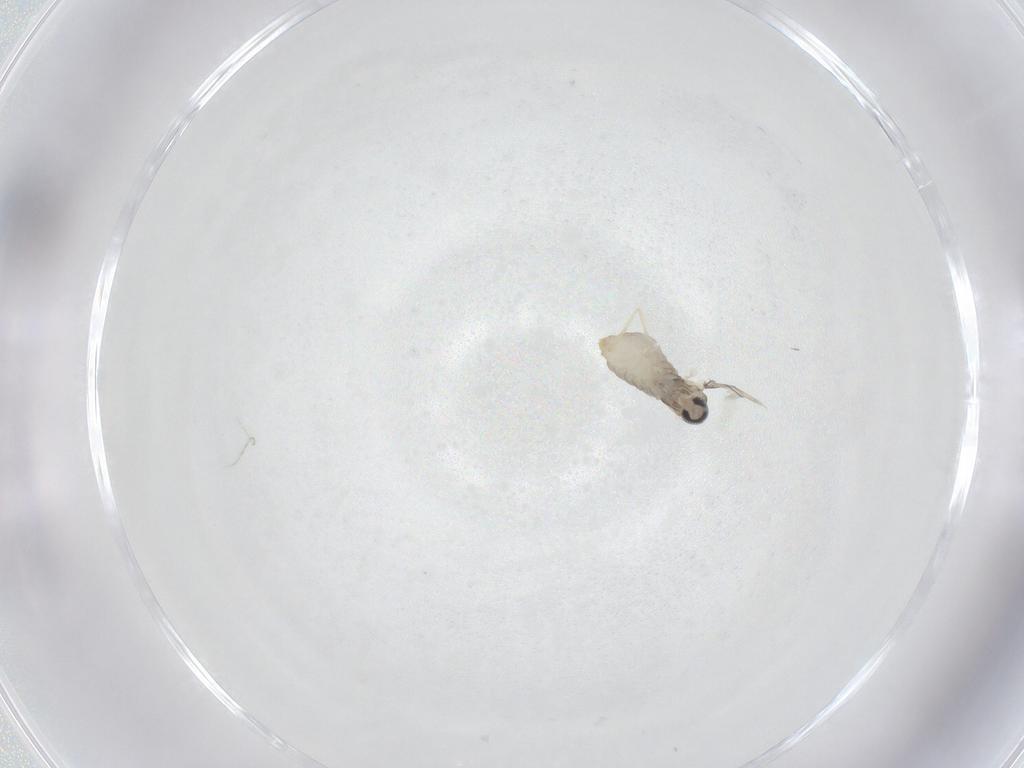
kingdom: Animalia
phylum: Arthropoda
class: Insecta
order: Diptera
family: Cecidomyiidae
